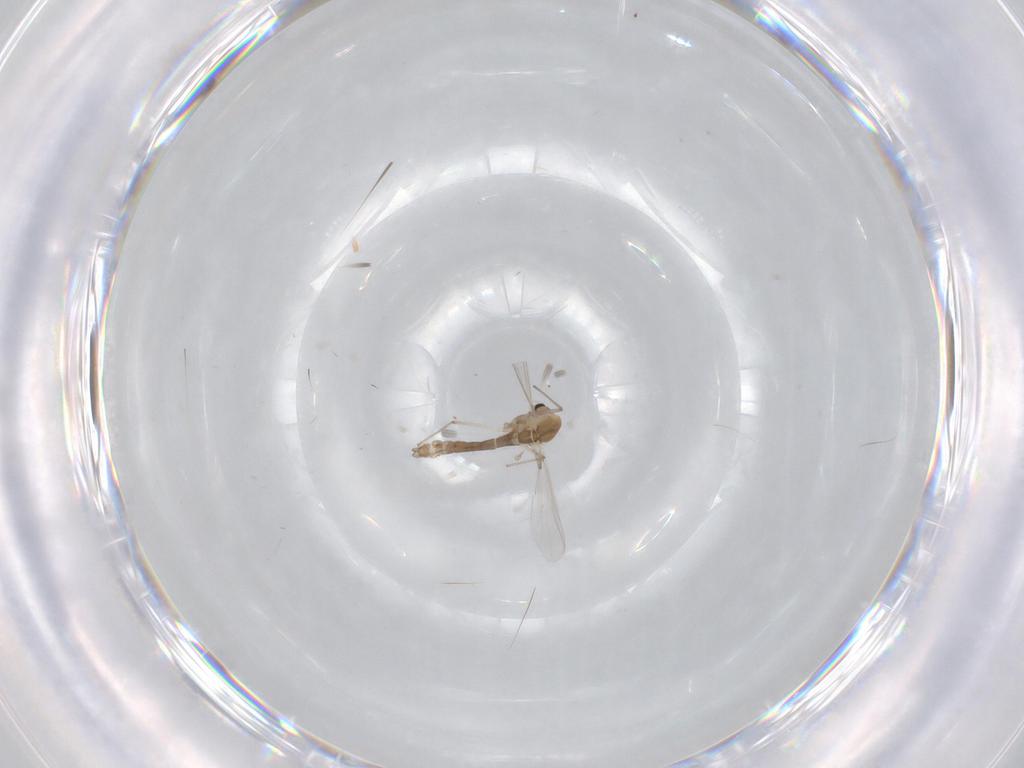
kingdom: Animalia
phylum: Arthropoda
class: Insecta
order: Diptera
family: Chironomidae
